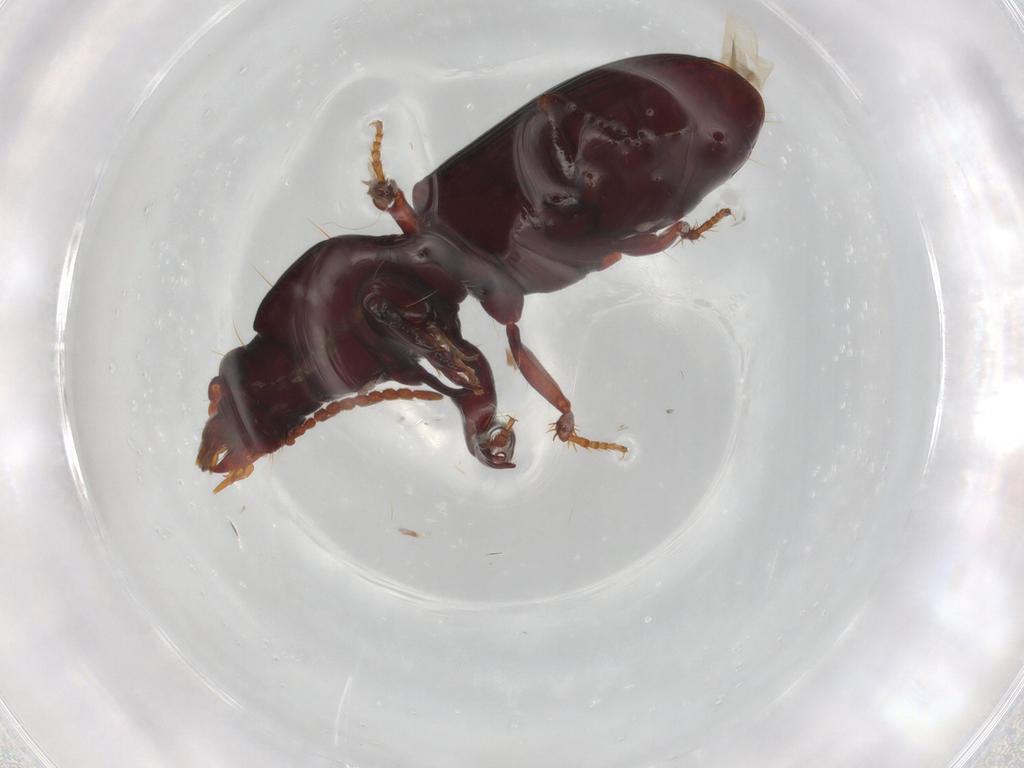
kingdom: Animalia
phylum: Arthropoda
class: Insecta
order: Coleoptera
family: Carabidae
